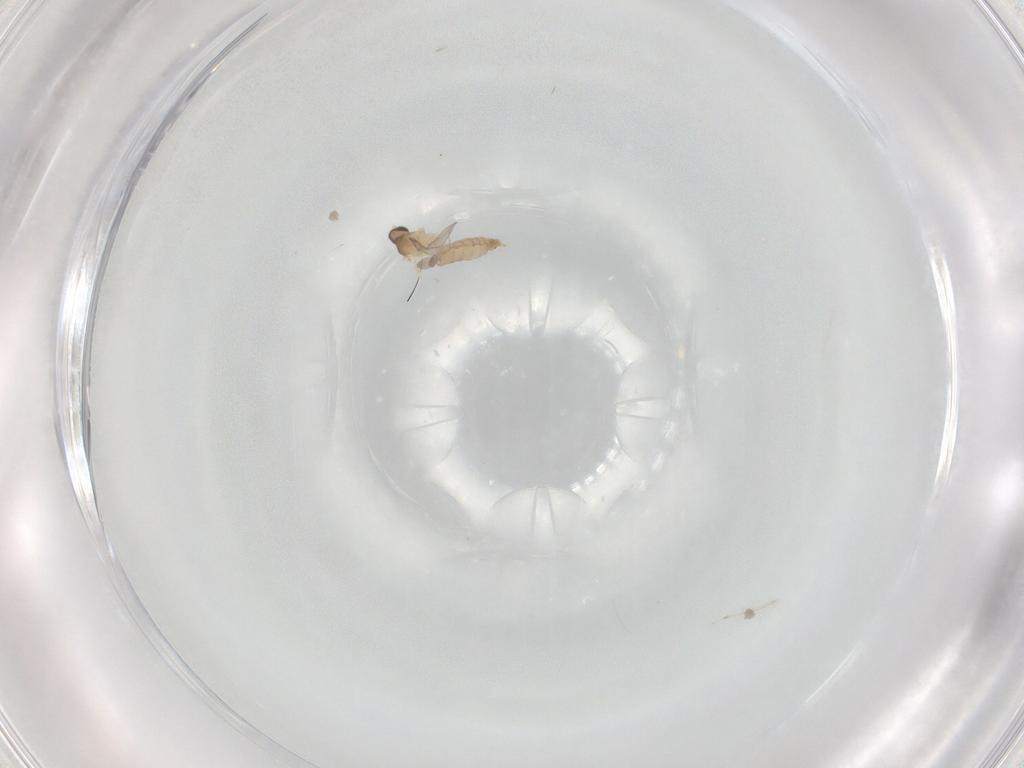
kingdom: Animalia
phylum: Arthropoda
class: Insecta
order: Diptera
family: Cecidomyiidae
